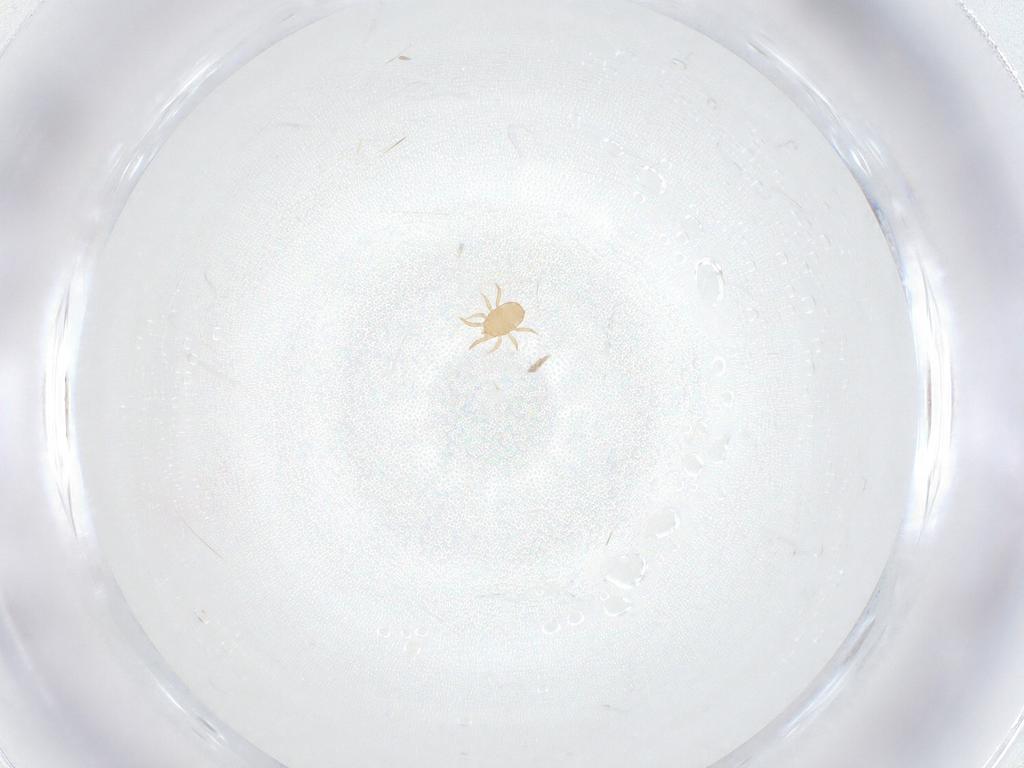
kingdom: Animalia
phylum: Arthropoda
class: Arachnida
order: Mesostigmata
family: Ameroseiidae
